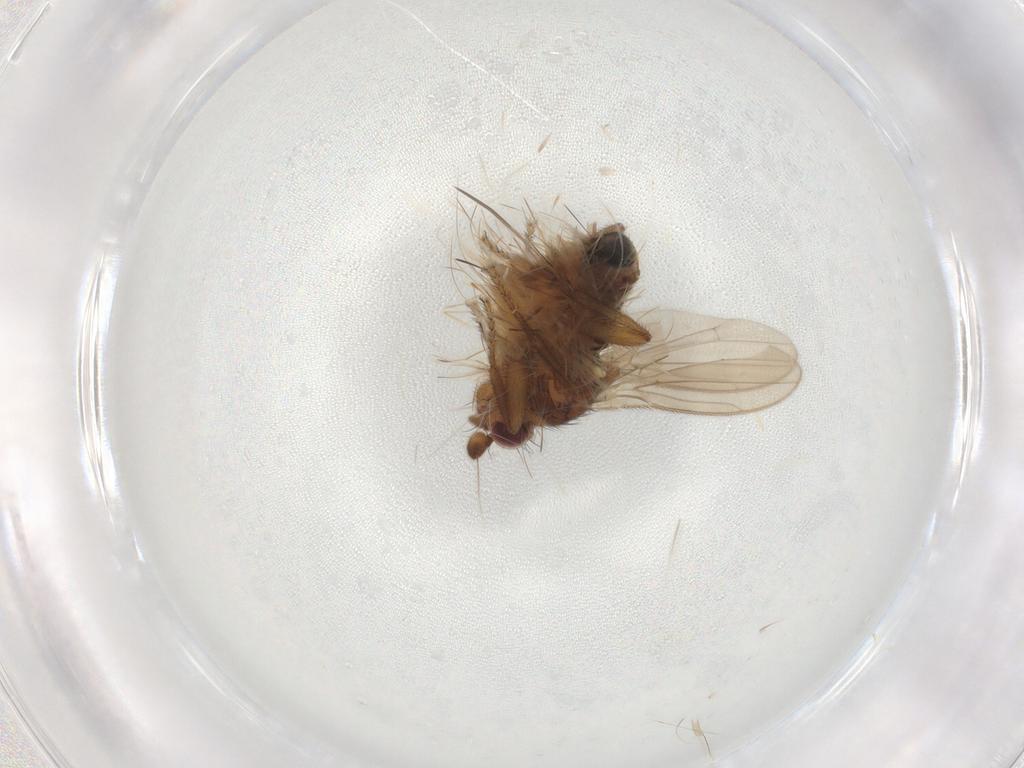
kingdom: Animalia
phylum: Arthropoda
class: Insecta
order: Diptera
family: Sphaeroceridae
